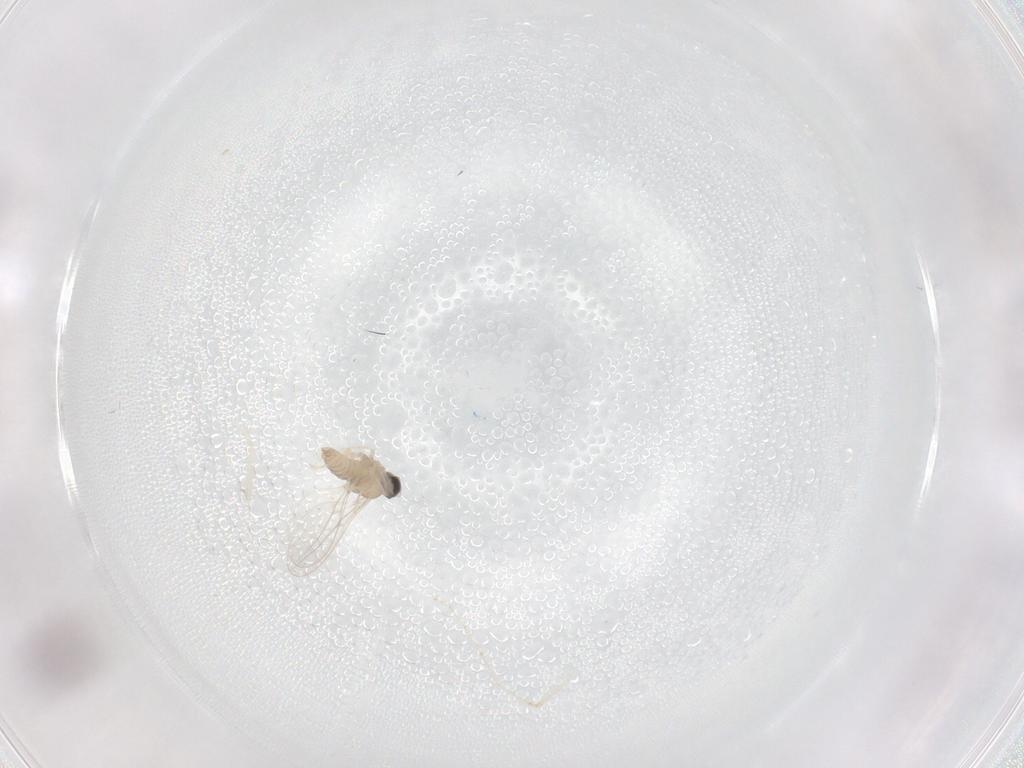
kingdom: Animalia
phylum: Arthropoda
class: Insecta
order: Diptera
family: Cecidomyiidae
